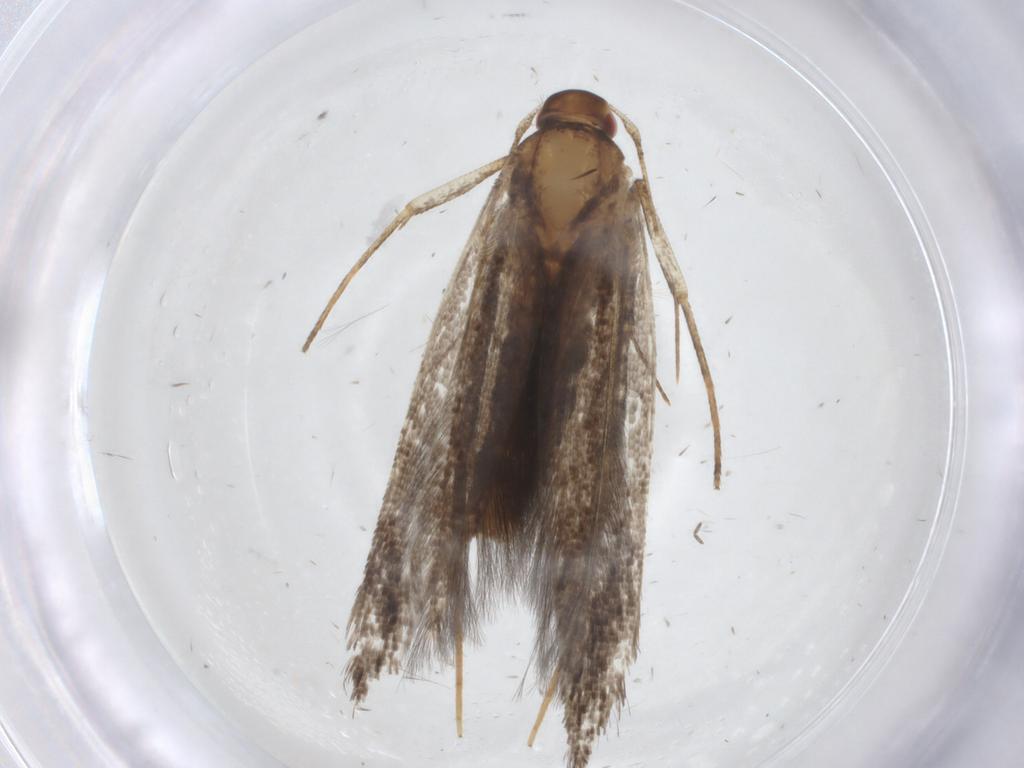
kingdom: Animalia
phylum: Arthropoda
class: Insecta
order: Lepidoptera
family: Cosmopterigidae
